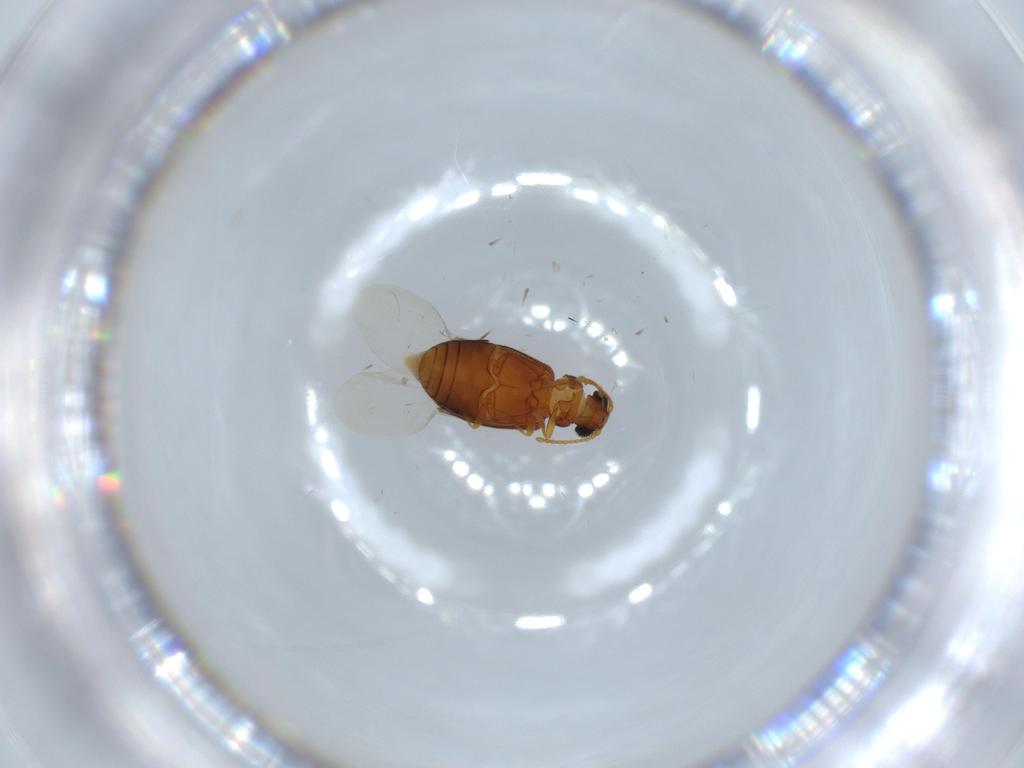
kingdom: Animalia
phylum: Arthropoda
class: Insecta
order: Coleoptera
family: Aderidae
